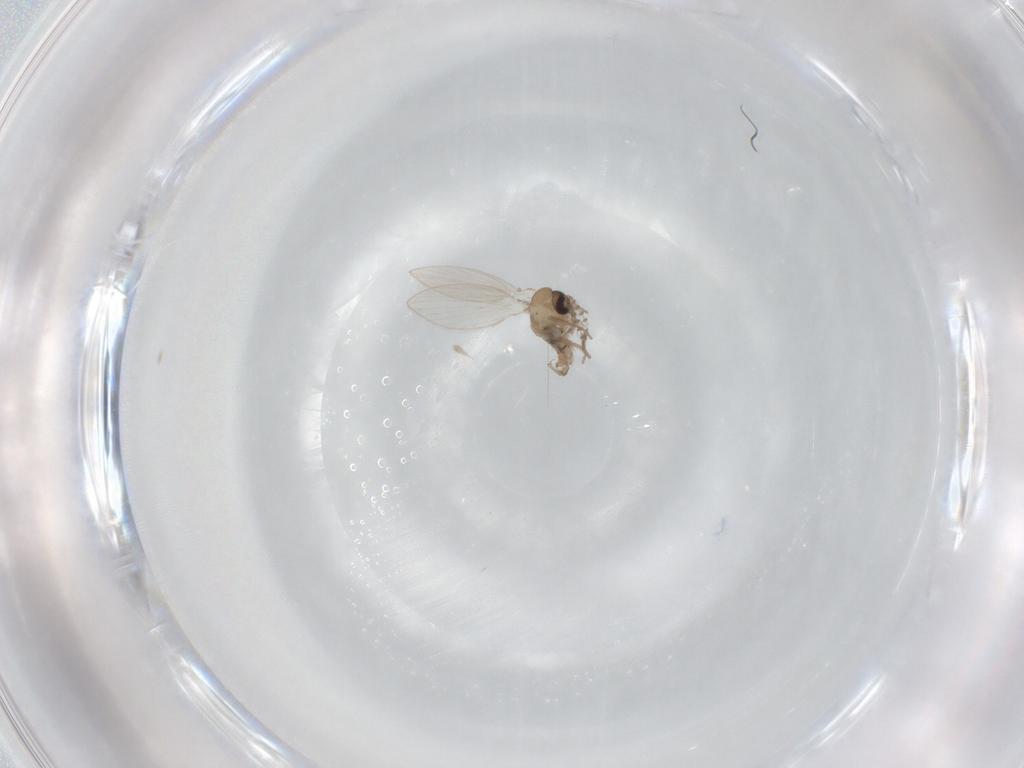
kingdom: Animalia
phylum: Arthropoda
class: Insecta
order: Diptera
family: Psychodidae
